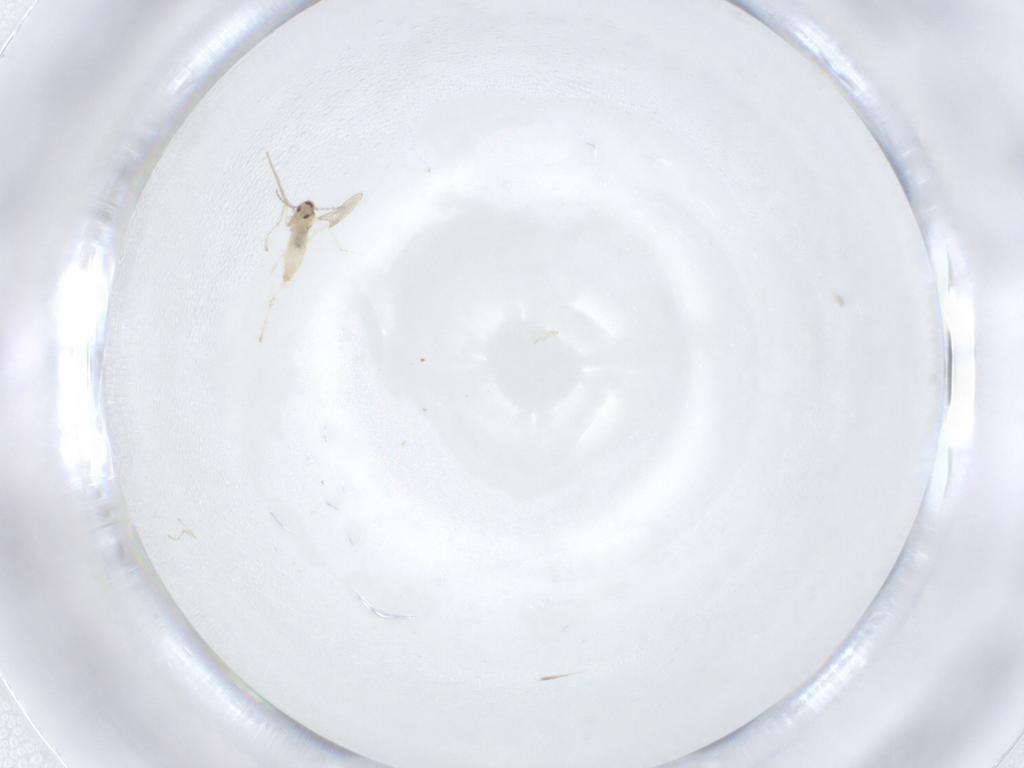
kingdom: Animalia
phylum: Arthropoda
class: Insecta
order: Diptera
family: Cecidomyiidae
